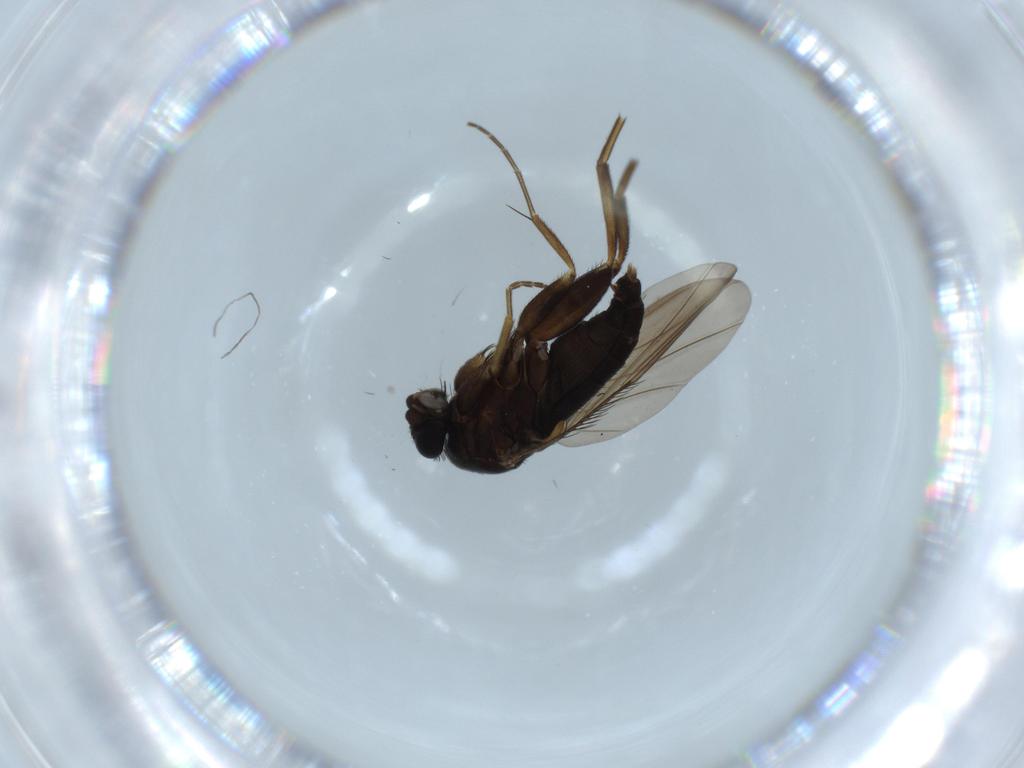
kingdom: Animalia
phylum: Arthropoda
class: Insecta
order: Diptera
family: Phoridae
